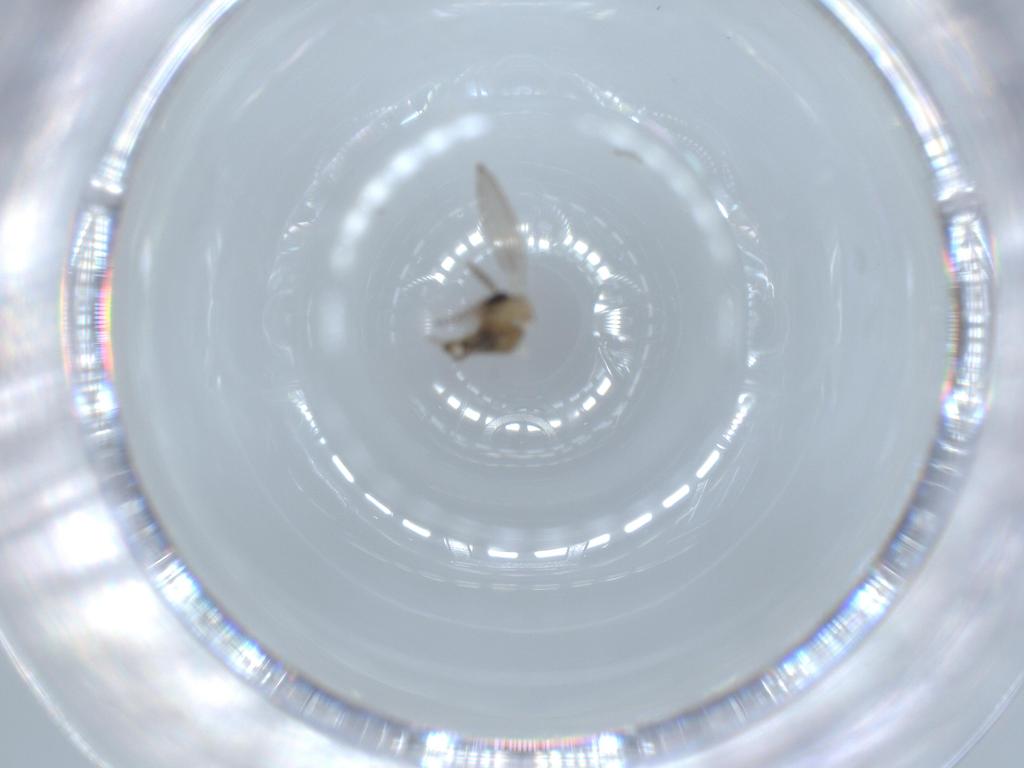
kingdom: Animalia
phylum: Arthropoda
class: Insecta
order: Diptera
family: Psychodidae
